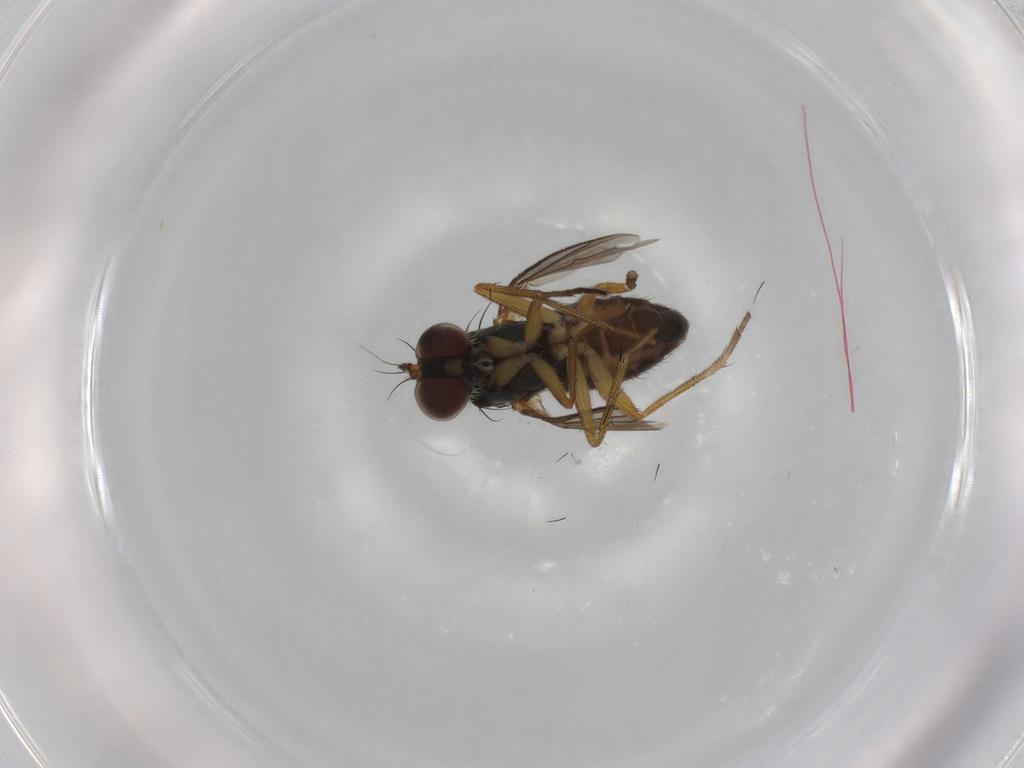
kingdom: Animalia
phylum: Arthropoda
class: Insecta
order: Diptera
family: Dolichopodidae
